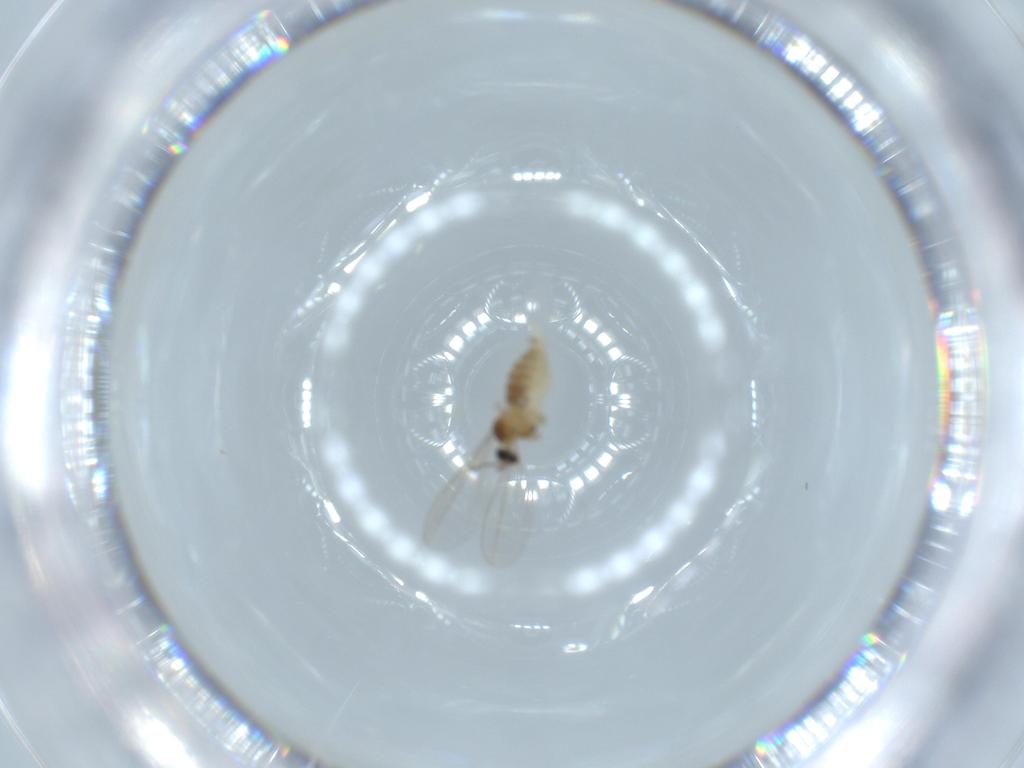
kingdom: Animalia
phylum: Arthropoda
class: Insecta
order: Diptera
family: Cecidomyiidae
